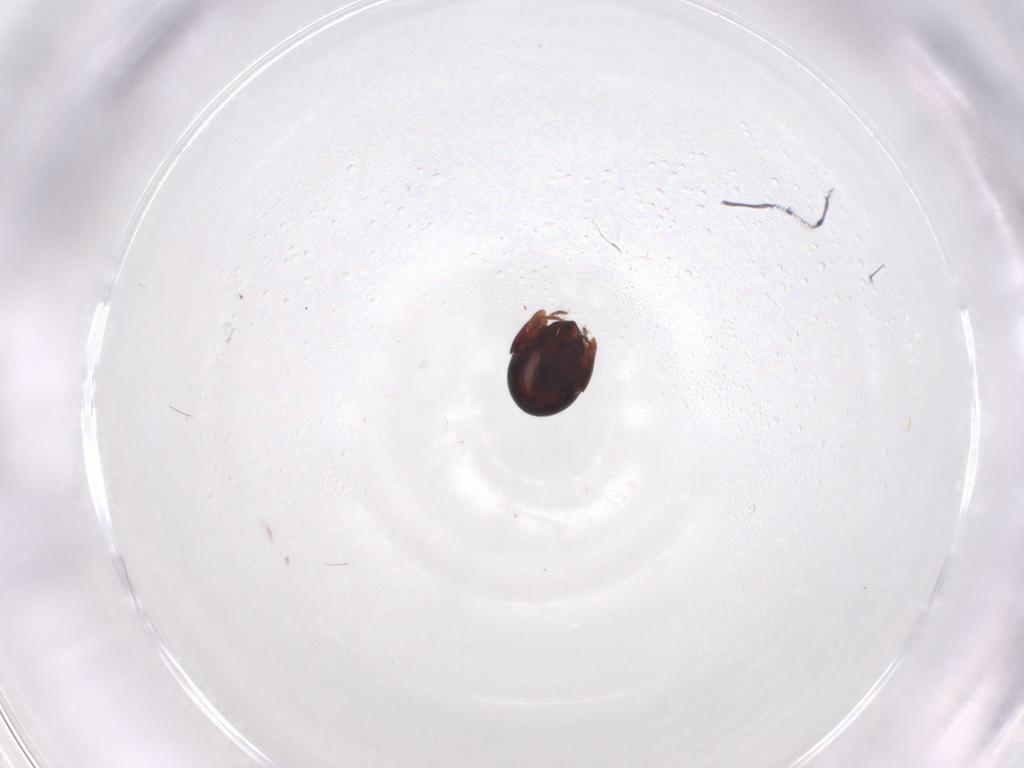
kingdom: Animalia
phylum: Arthropoda
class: Arachnida
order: Sarcoptiformes
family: Galumnidae
